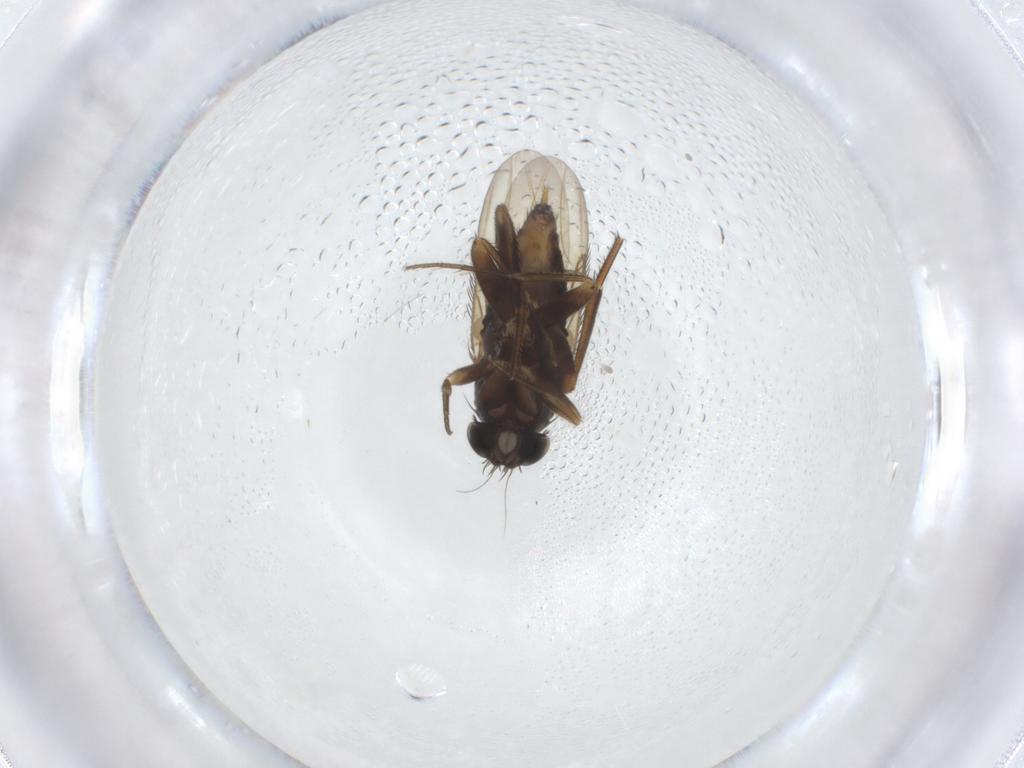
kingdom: Animalia
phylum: Arthropoda
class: Insecta
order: Diptera
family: Phoridae
